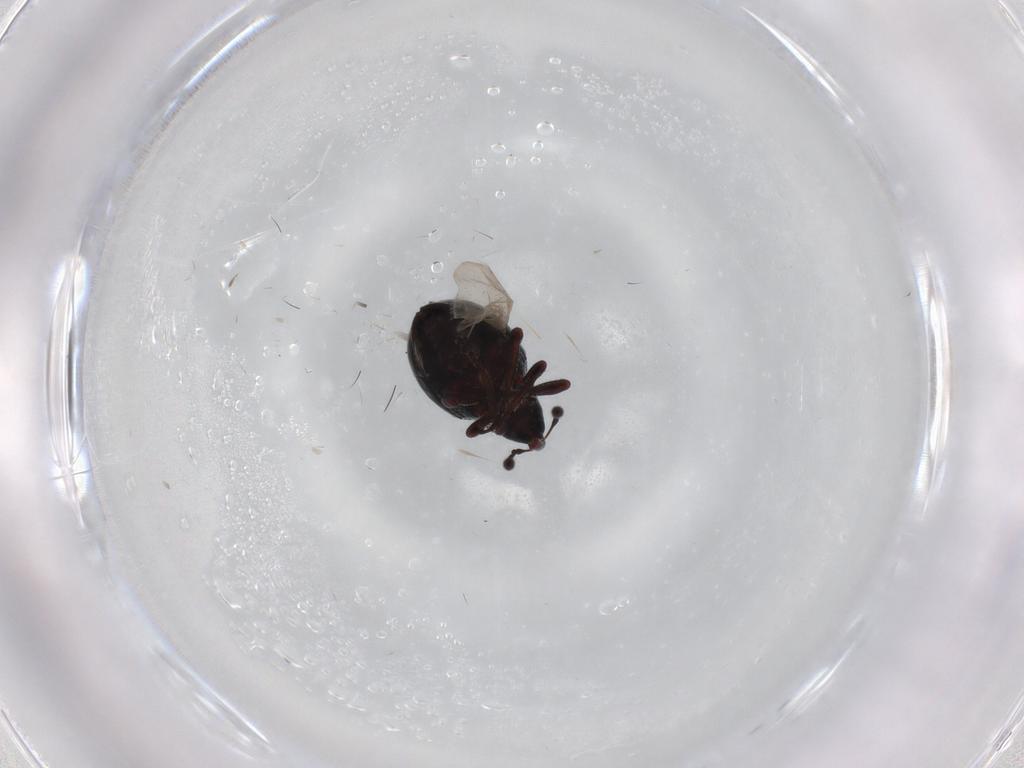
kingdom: Animalia
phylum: Arthropoda
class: Insecta
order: Coleoptera
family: Curculionidae
